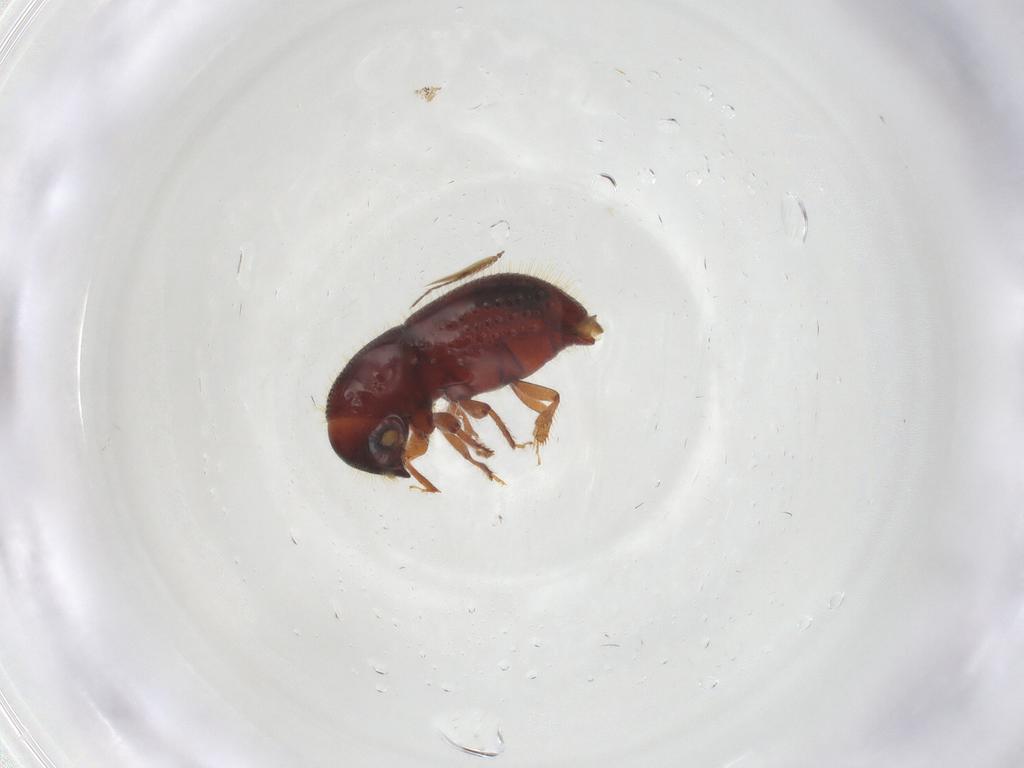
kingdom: Animalia
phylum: Arthropoda
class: Insecta
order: Coleoptera
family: Curculionidae
